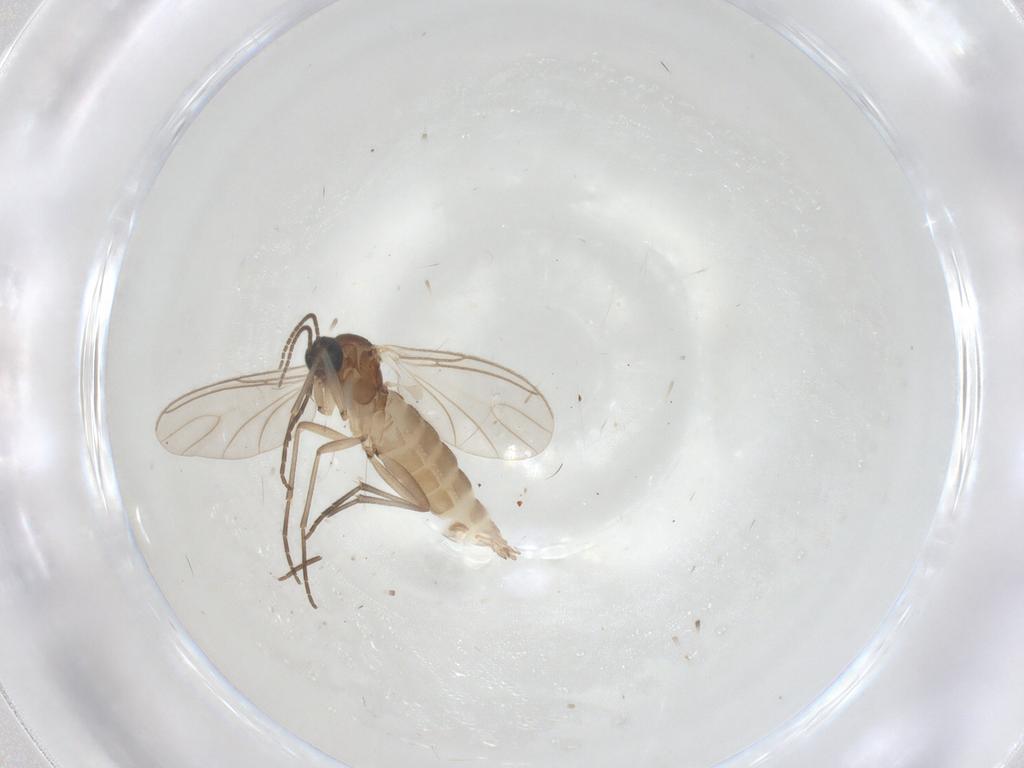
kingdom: Animalia
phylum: Arthropoda
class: Insecta
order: Diptera
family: Sciaridae
